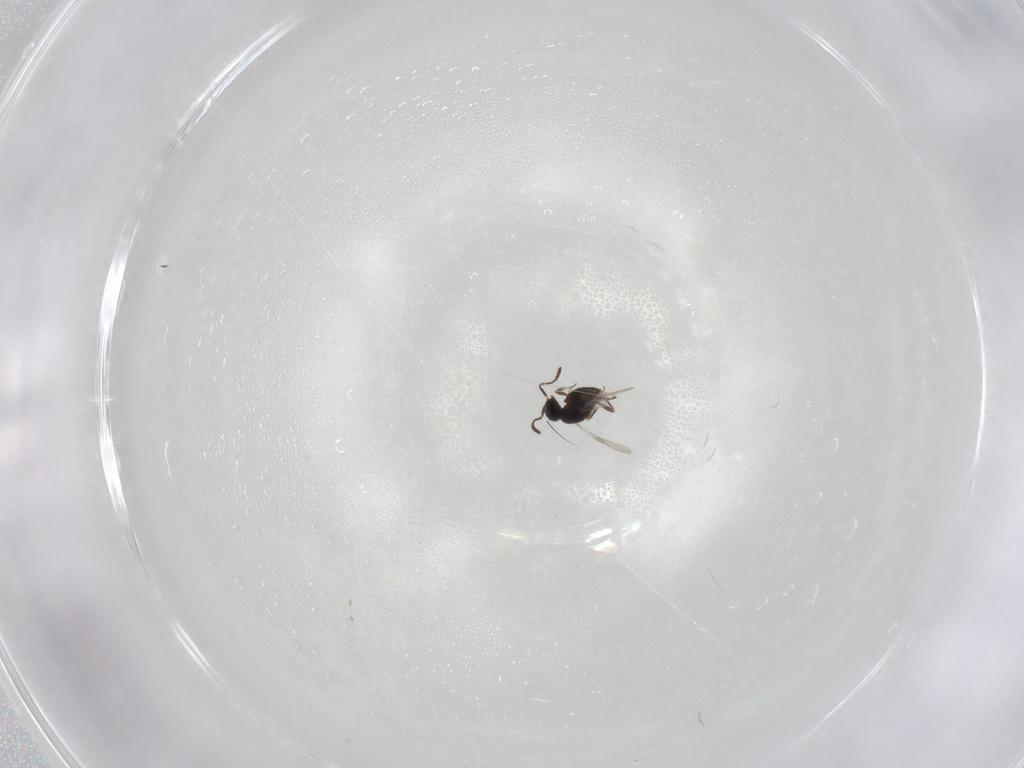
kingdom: Animalia
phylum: Arthropoda
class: Insecta
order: Hymenoptera
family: Scelionidae
